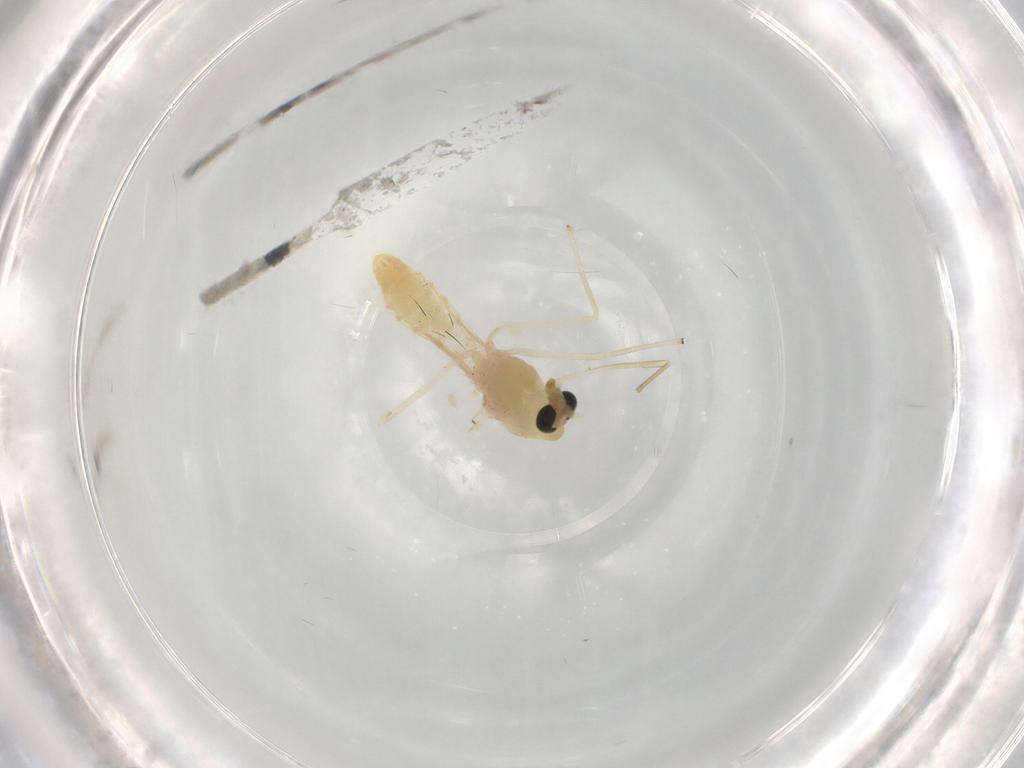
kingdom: Animalia
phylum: Arthropoda
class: Insecta
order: Diptera
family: Chironomidae
